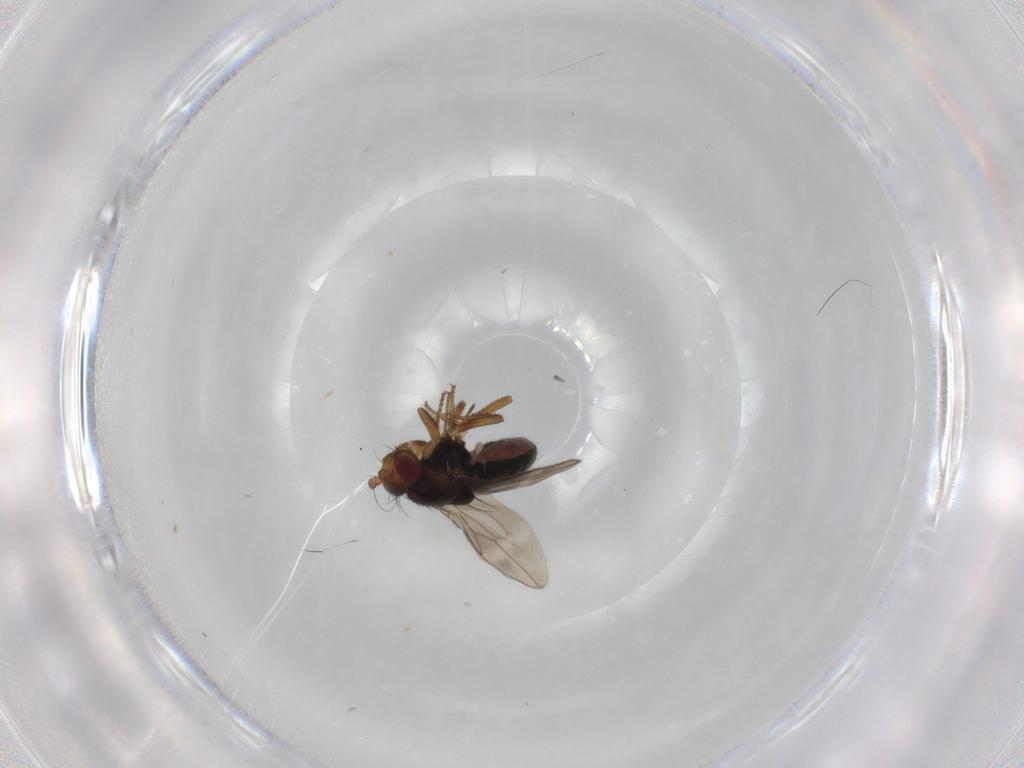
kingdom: Animalia
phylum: Arthropoda
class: Insecta
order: Diptera
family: Sphaeroceridae
